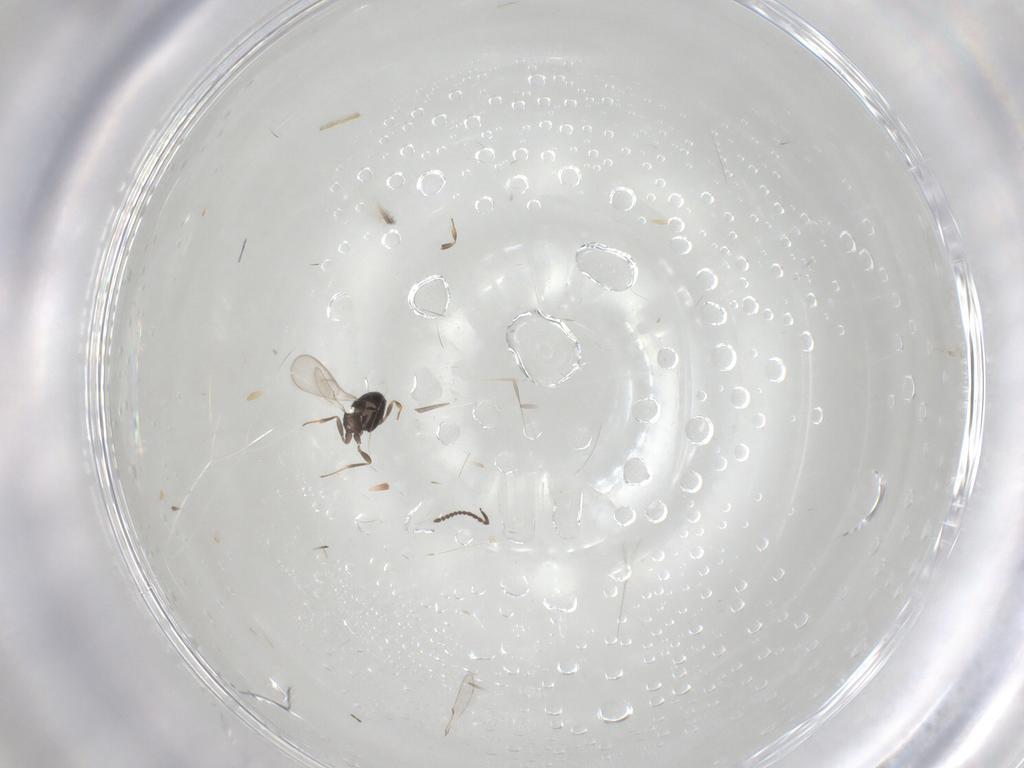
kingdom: Animalia
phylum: Arthropoda
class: Insecta
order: Hymenoptera
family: Scelionidae
